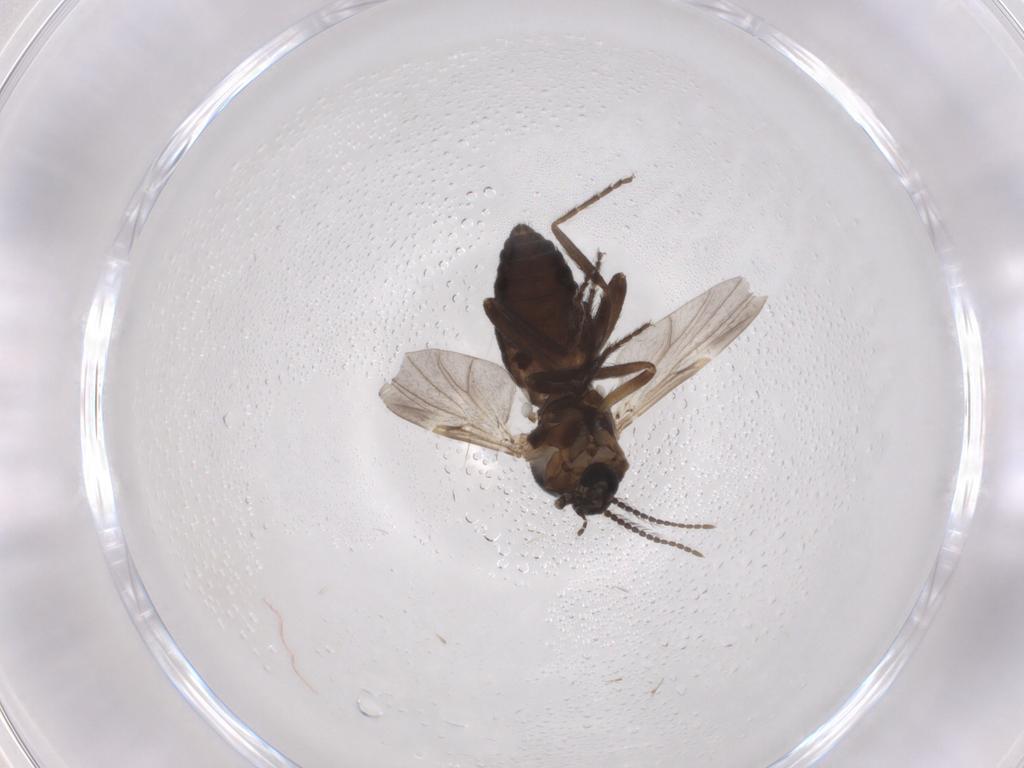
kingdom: Animalia
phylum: Arthropoda
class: Insecta
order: Diptera
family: Ceratopogonidae
